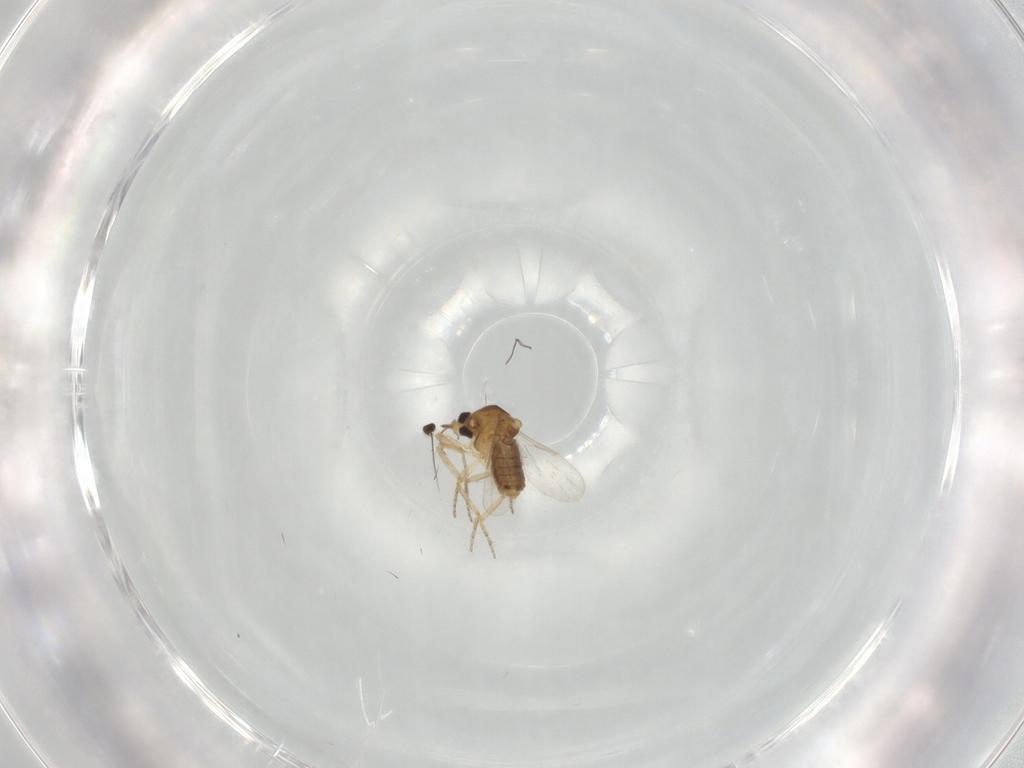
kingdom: Animalia
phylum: Arthropoda
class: Insecta
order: Diptera
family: Ceratopogonidae
